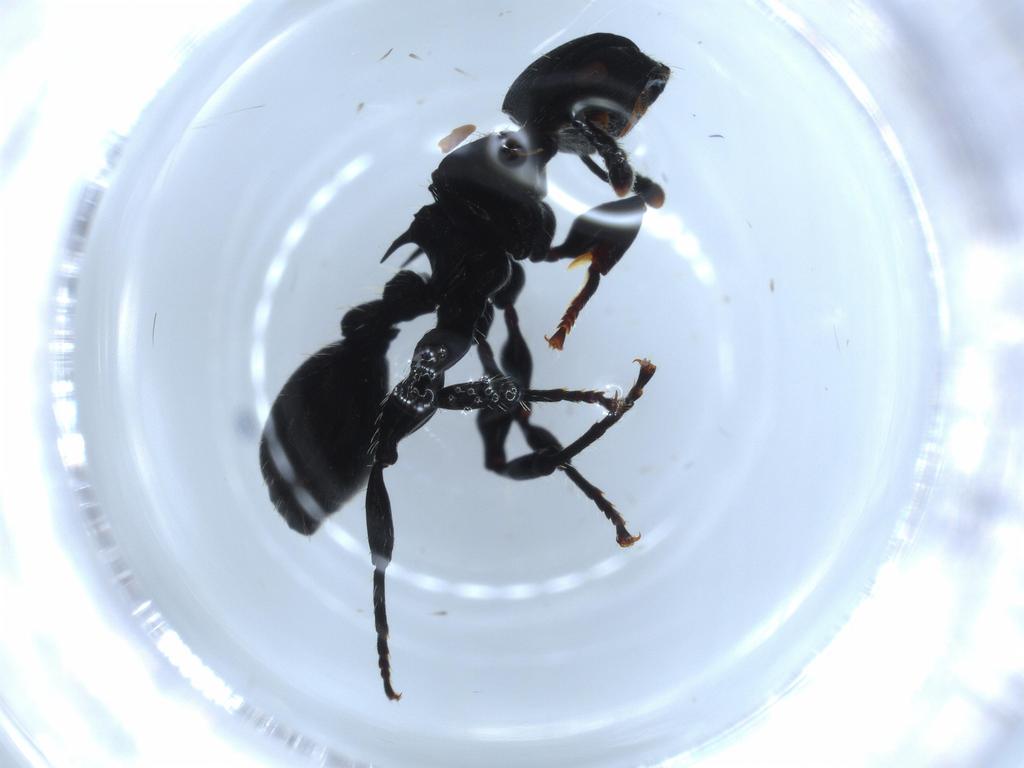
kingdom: Animalia
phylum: Arthropoda
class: Insecta
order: Hymenoptera
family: Formicidae
